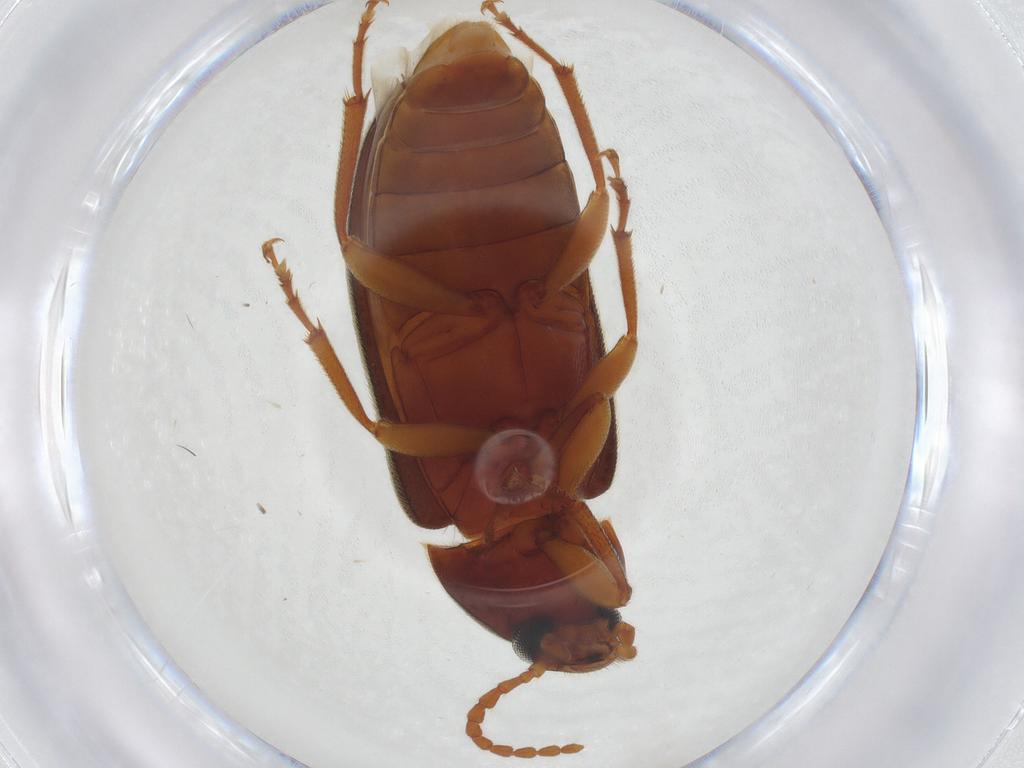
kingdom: Animalia
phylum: Arthropoda
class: Insecta
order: Coleoptera
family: Tenebrionidae
